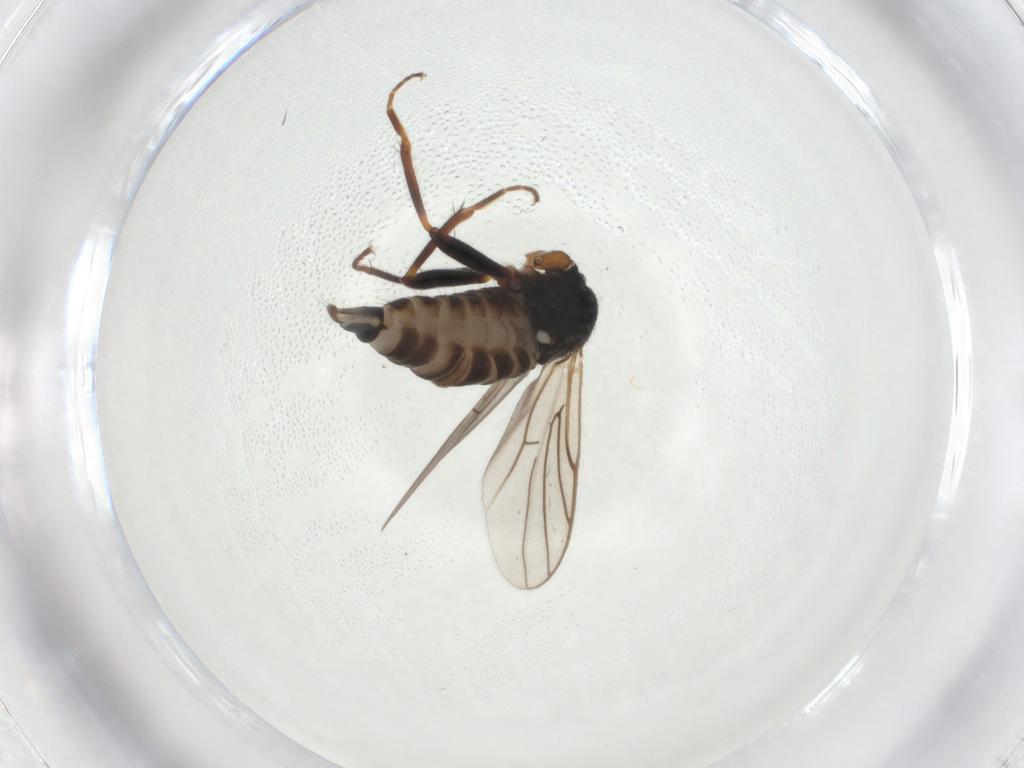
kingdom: Animalia
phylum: Arthropoda
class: Insecta
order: Diptera
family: Phoridae
